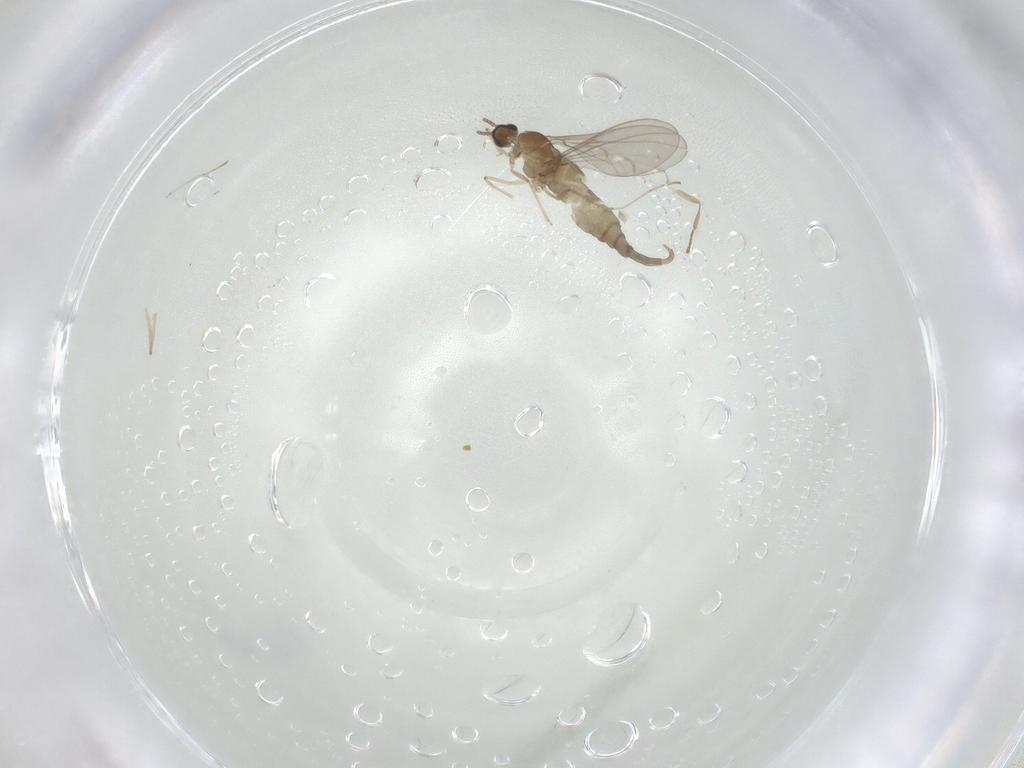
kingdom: Animalia
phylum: Arthropoda
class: Insecta
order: Diptera
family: Cecidomyiidae
